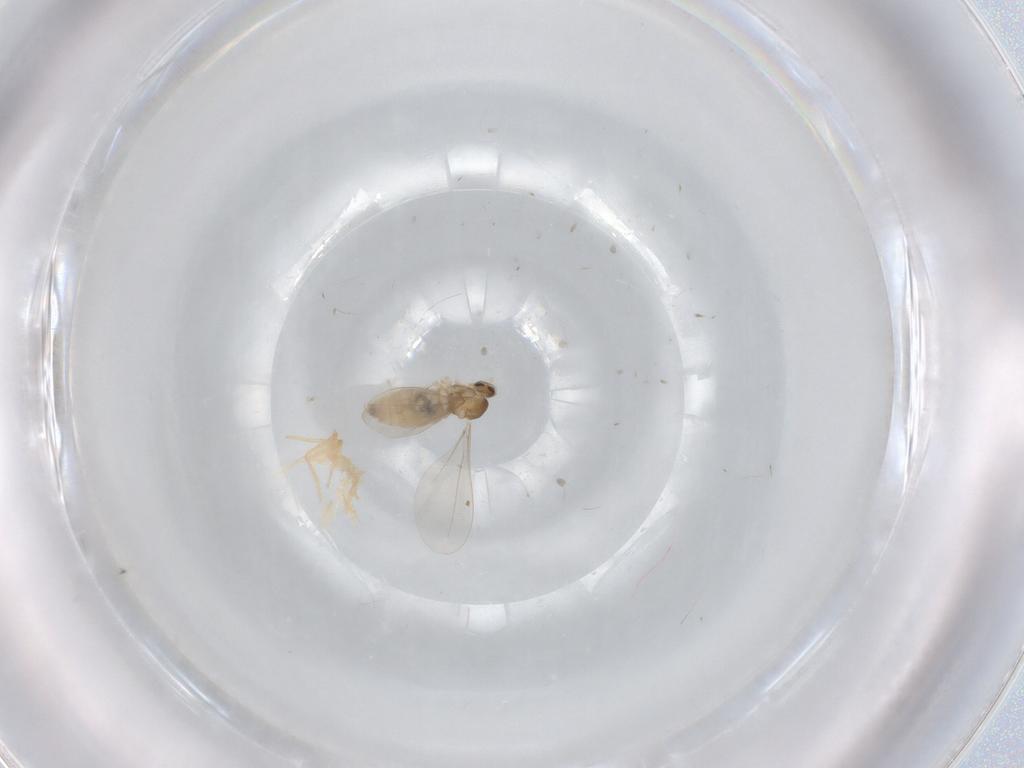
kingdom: Animalia
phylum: Arthropoda
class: Insecta
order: Diptera
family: Cecidomyiidae
